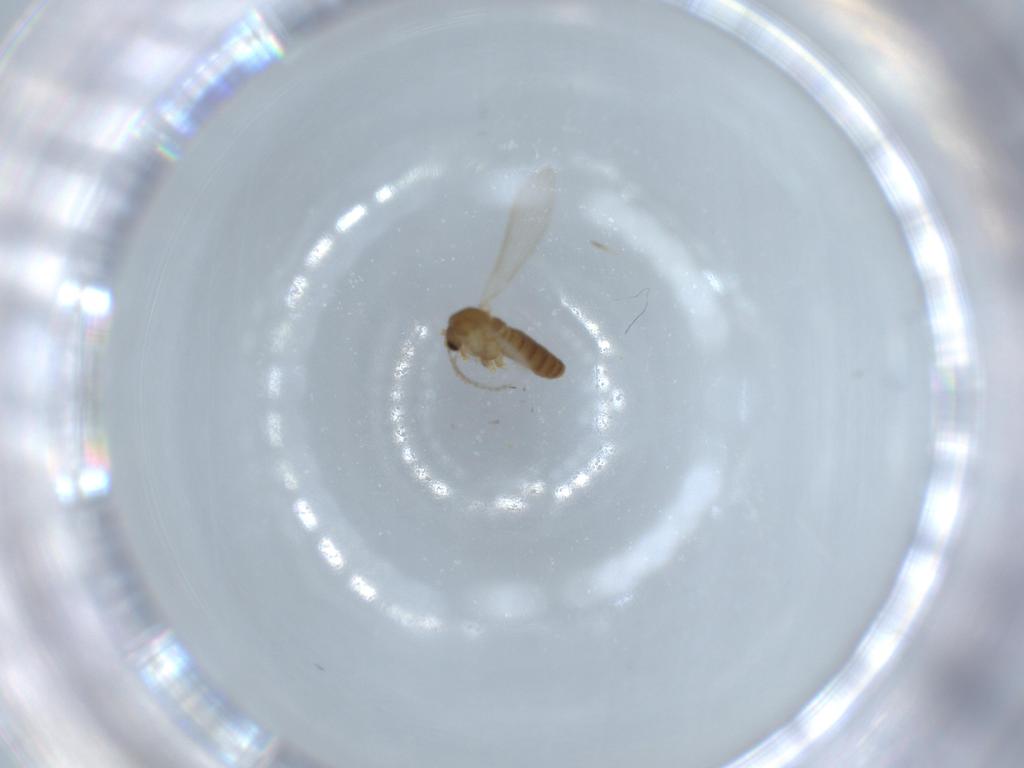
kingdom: Animalia
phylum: Arthropoda
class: Insecta
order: Diptera
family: Psychodidae
